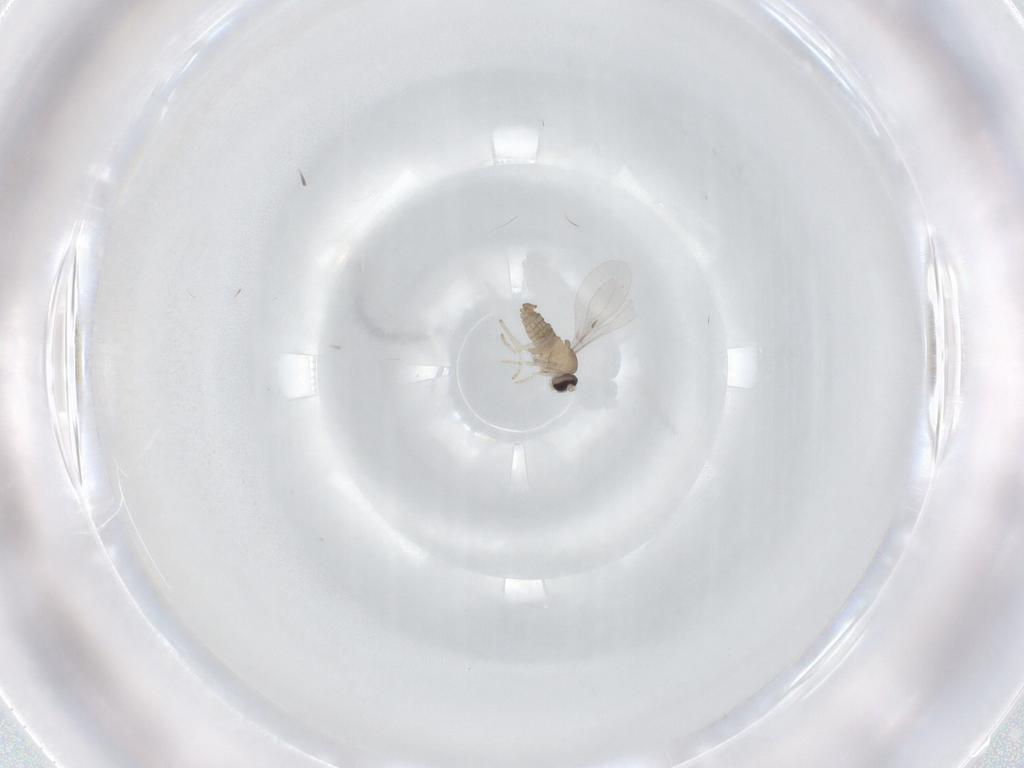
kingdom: Animalia
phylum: Arthropoda
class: Insecta
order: Diptera
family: Cecidomyiidae
